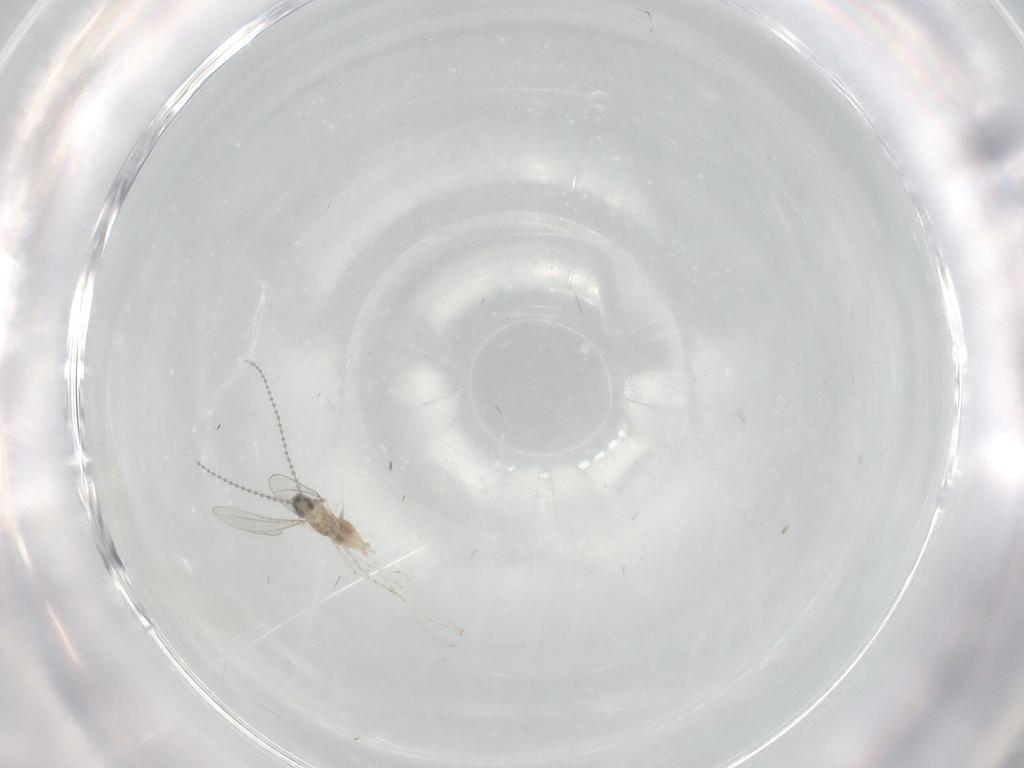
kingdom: Animalia
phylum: Arthropoda
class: Insecta
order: Diptera
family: Cecidomyiidae
